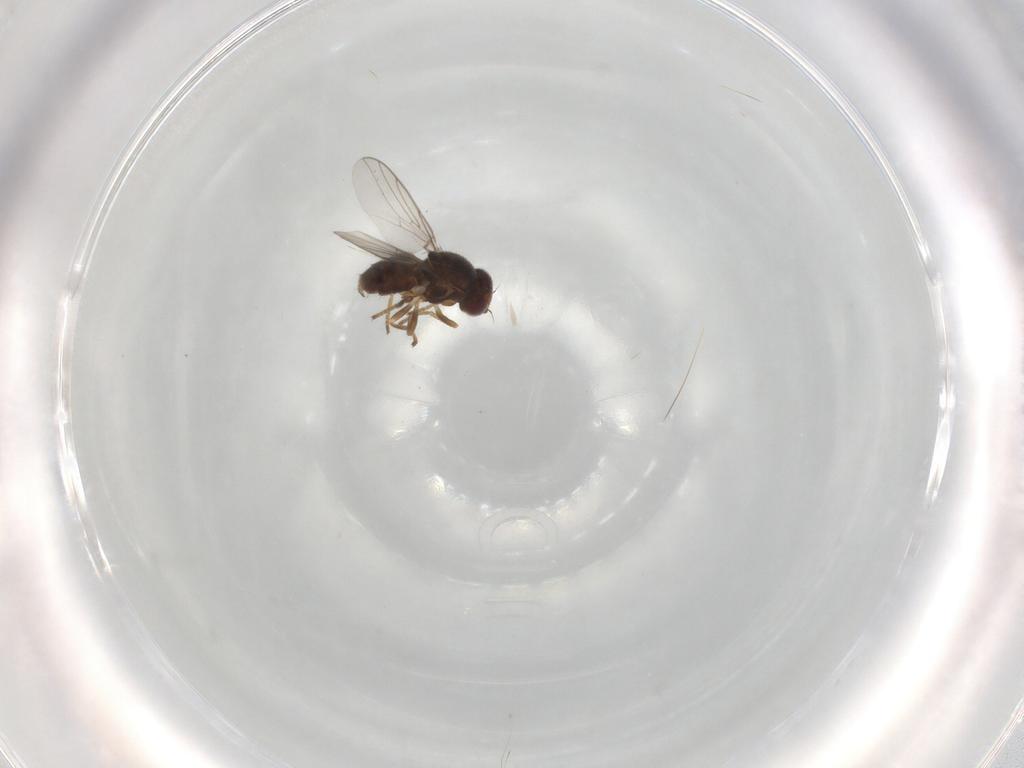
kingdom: Animalia
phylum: Arthropoda
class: Insecta
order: Diptera
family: Chloropidae
